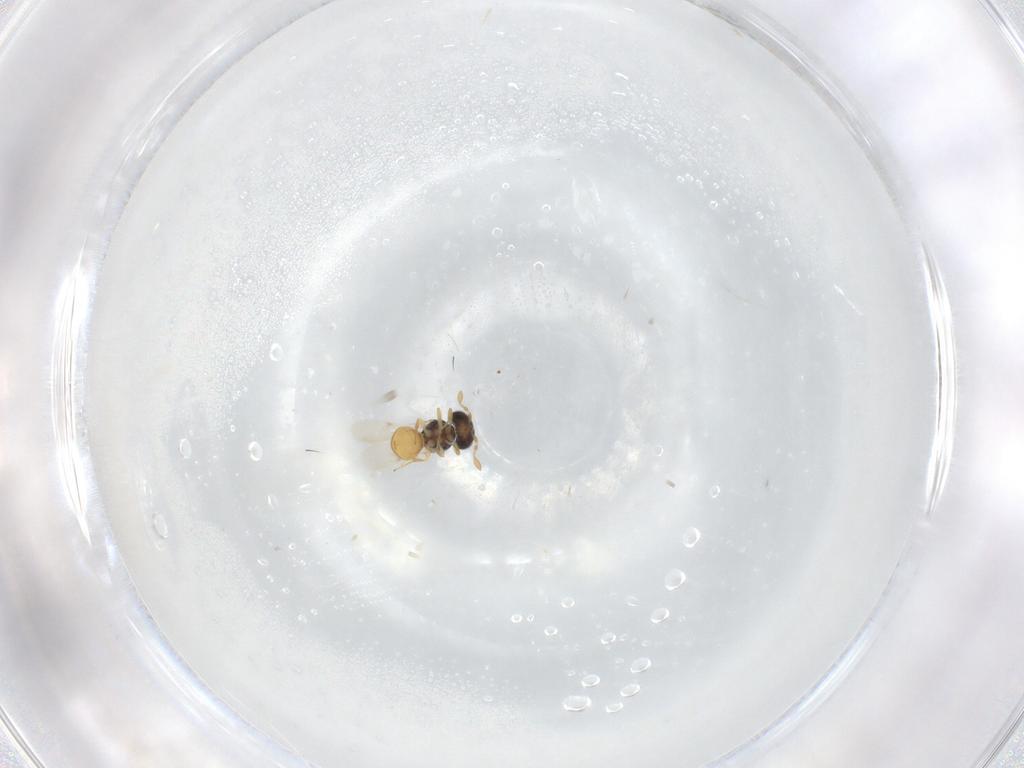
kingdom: Animalia
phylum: Arthropoda
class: Insecta
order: Hymenoptera
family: Scelionidae
